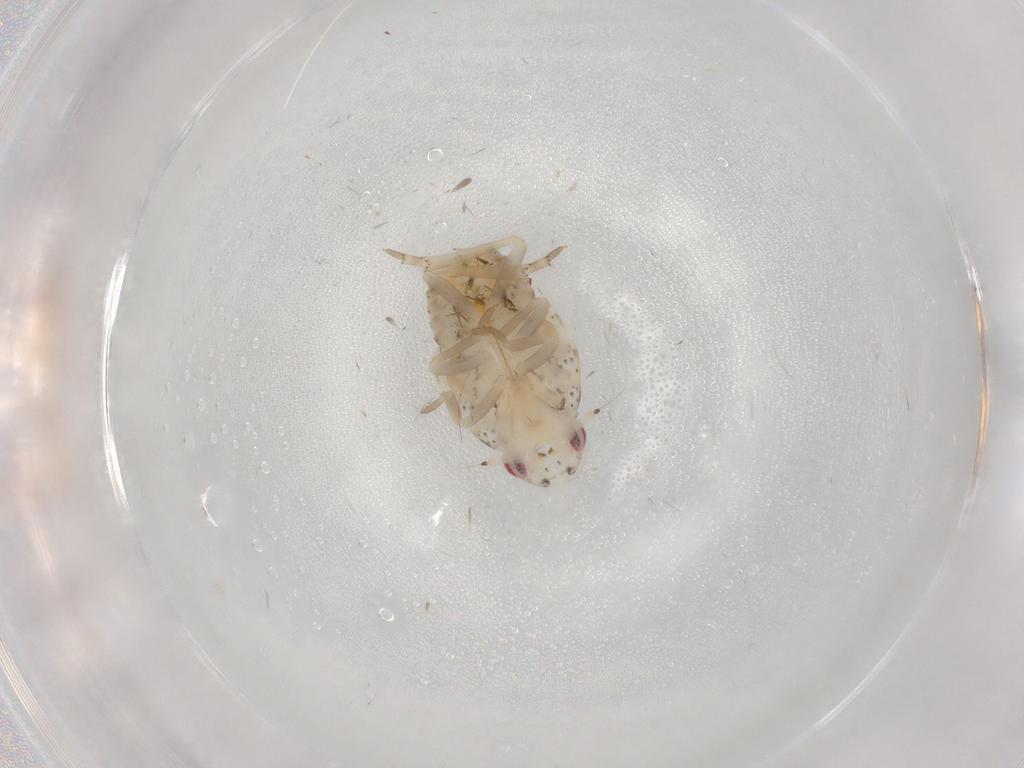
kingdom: Animalia
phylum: Arthropoda
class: Insecta
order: Hemiptera
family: Flatidae
